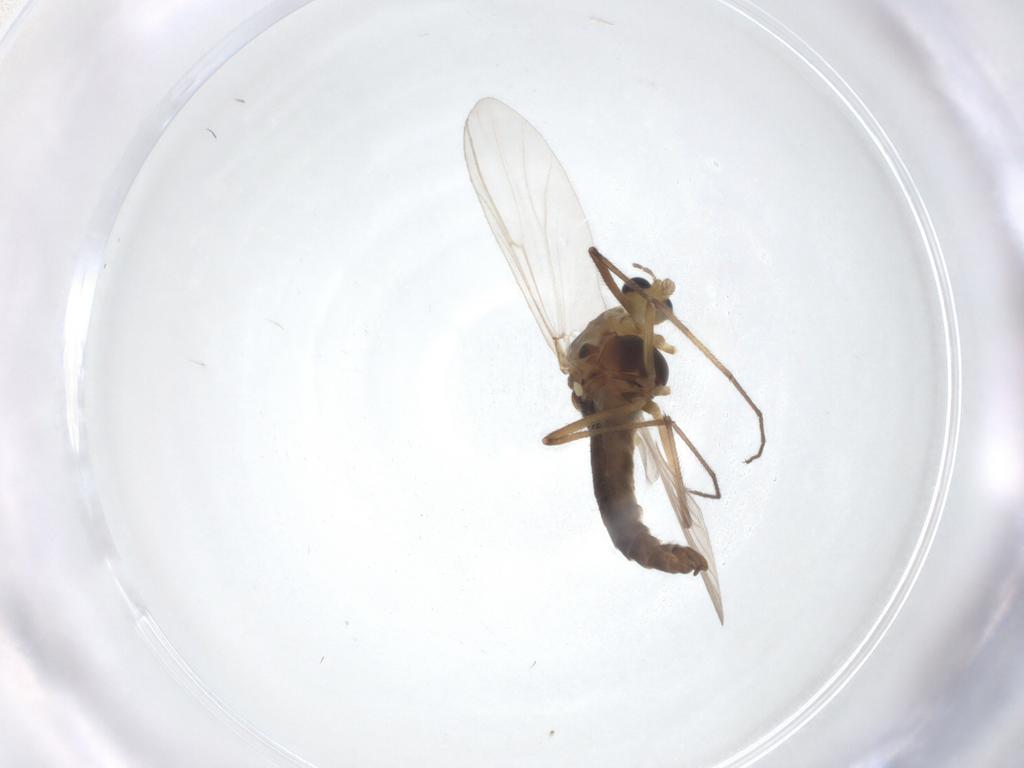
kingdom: Animalia
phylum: Arthropoda
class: Insecta
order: Diptera
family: Chironomidae
